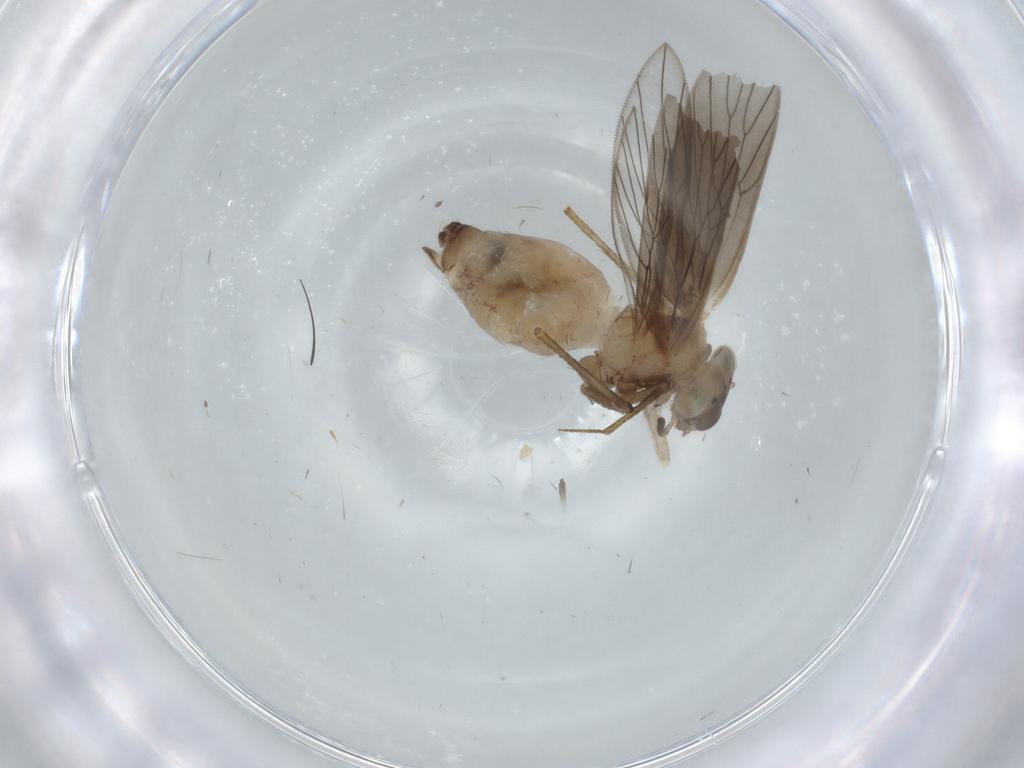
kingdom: Animalia
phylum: Arthropoda
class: Insecta
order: Psocodea
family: Lepidopsocidae
